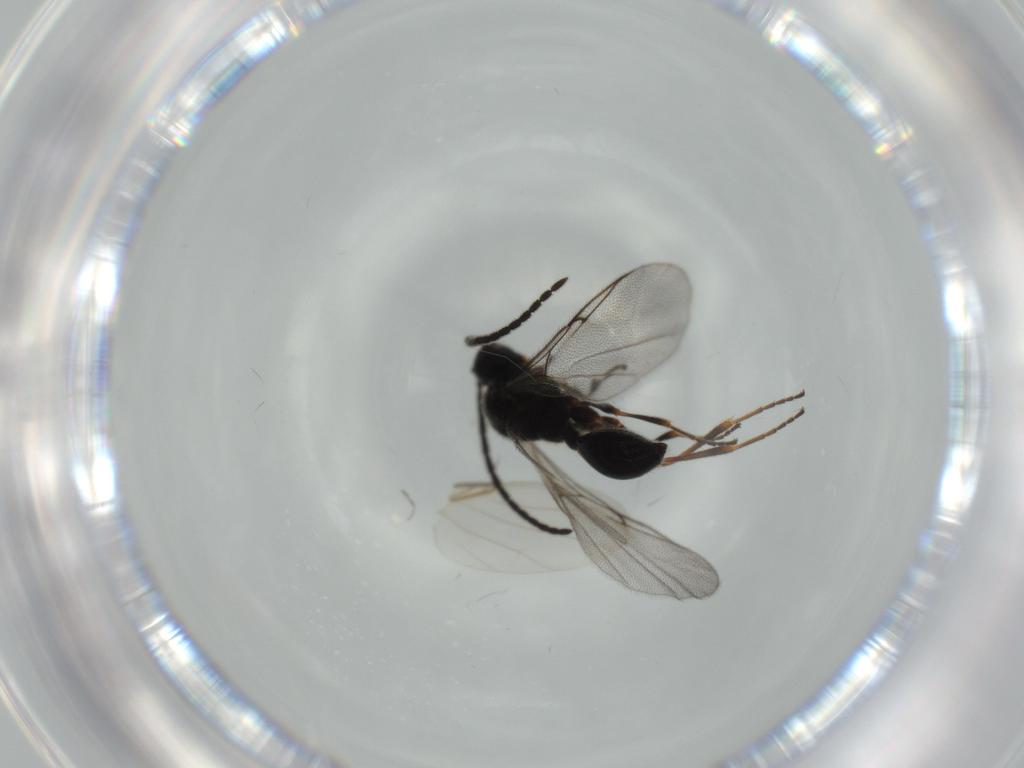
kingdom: Animalia
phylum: Arthropoda
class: Insecta
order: Hymenoptera
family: Diapriidae
